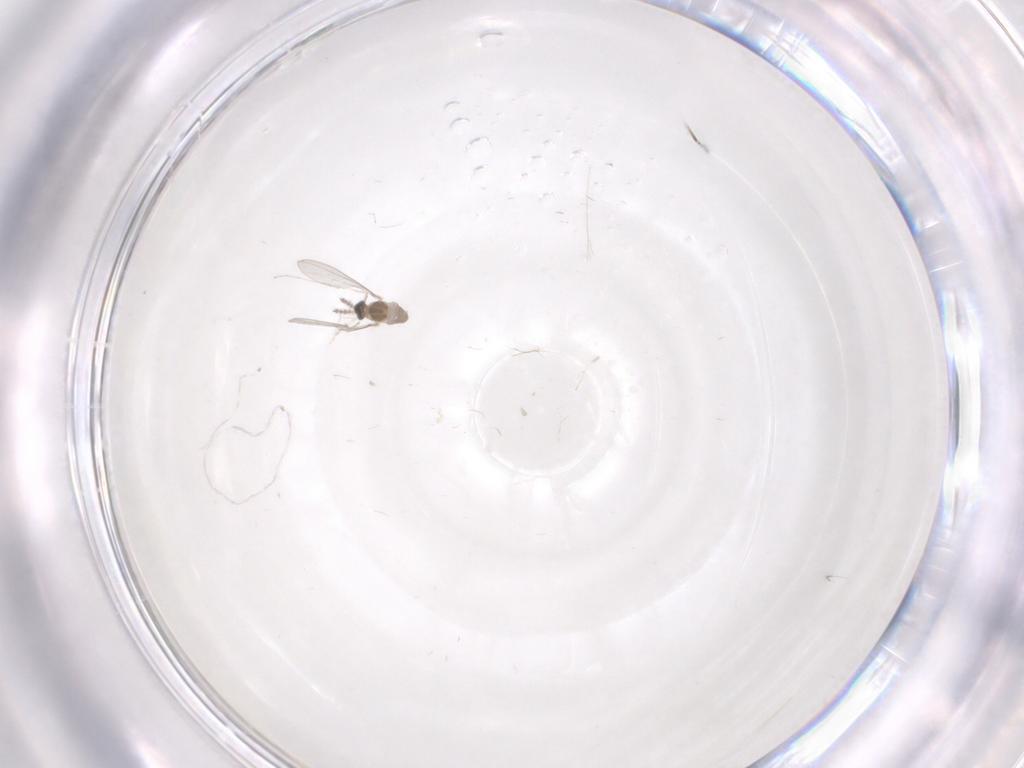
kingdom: Animalia
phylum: Arthropoda
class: Insecta
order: Diptera
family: Cecidomyiidae
